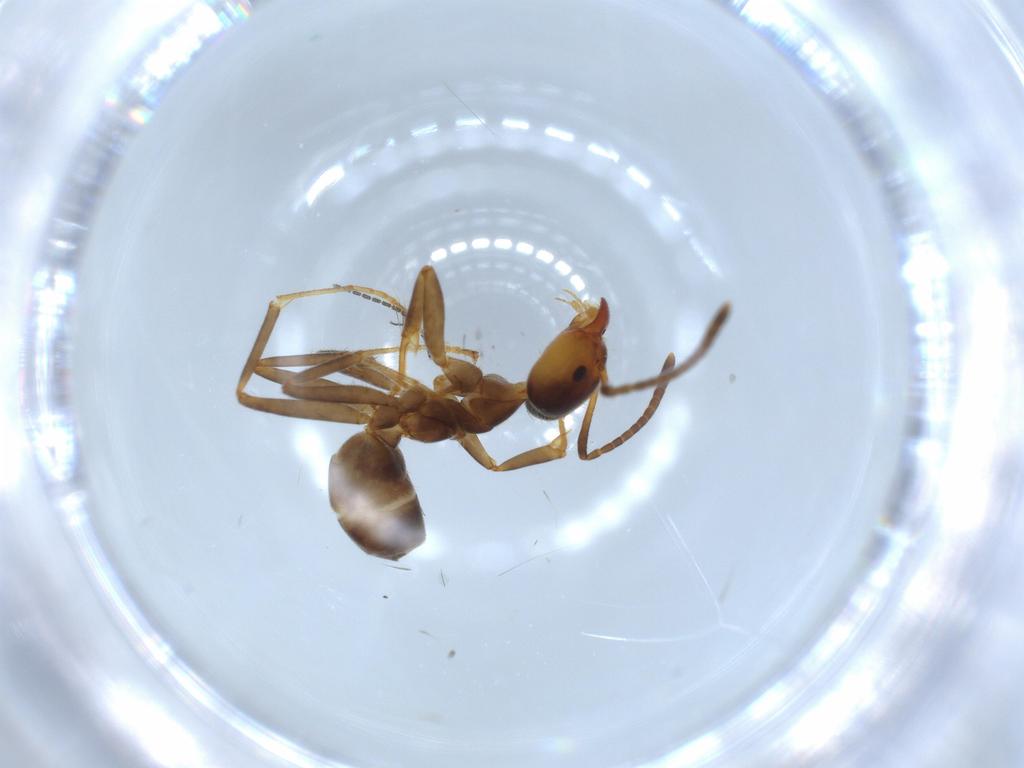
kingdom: Animalia
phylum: Arthropoda
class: Insecta
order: Hymenoptera
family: Formicidae
